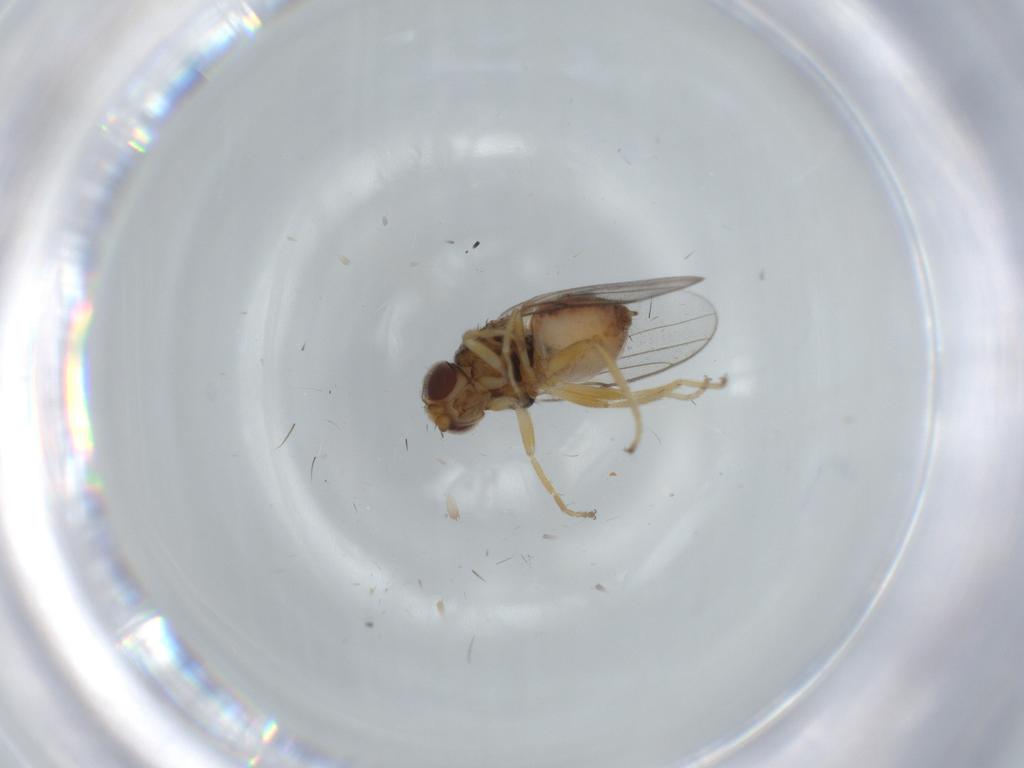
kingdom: Animalia
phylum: Arthropoda
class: Insecta
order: Diptera
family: Chloropidae
